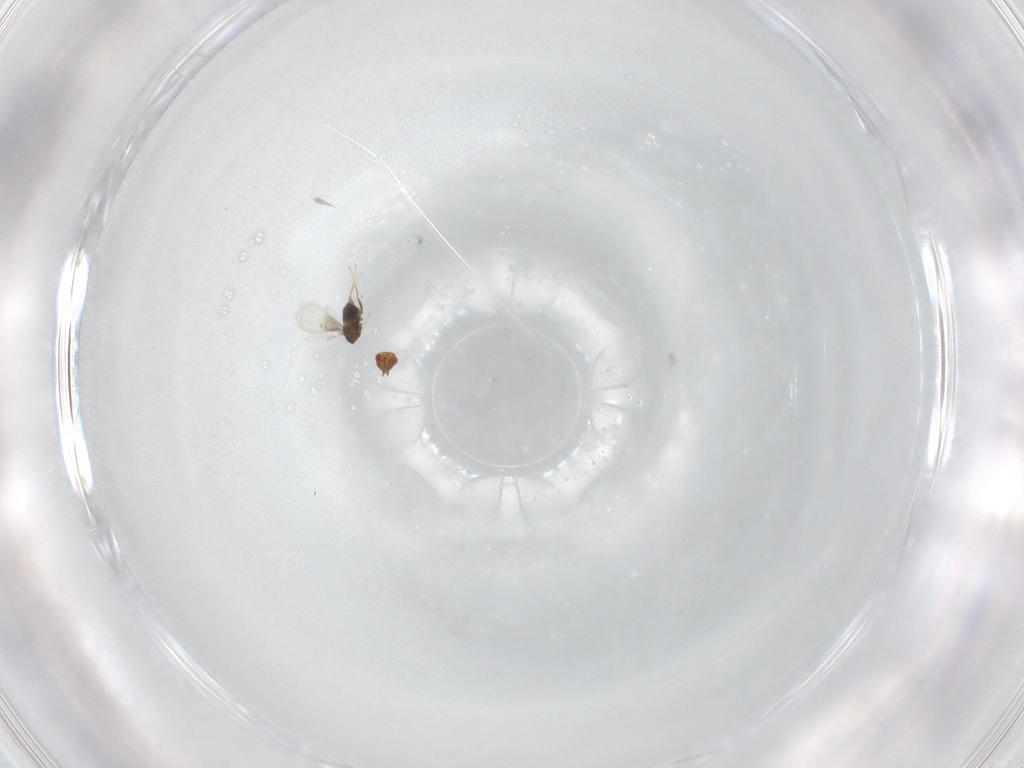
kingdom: Animalia
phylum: Arthropoda
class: Insecta
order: Hymenoptera
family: Trichogrammatidae
